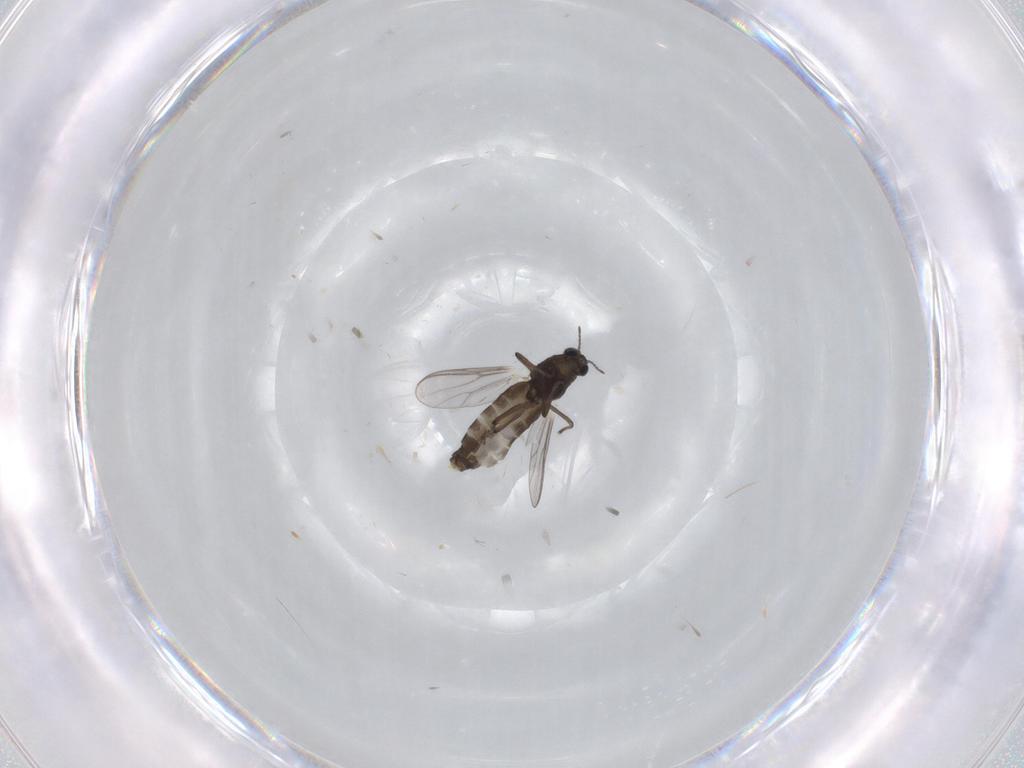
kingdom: Animalia
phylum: Arthropoda
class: Insecta
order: Diptera
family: Chironomidae
